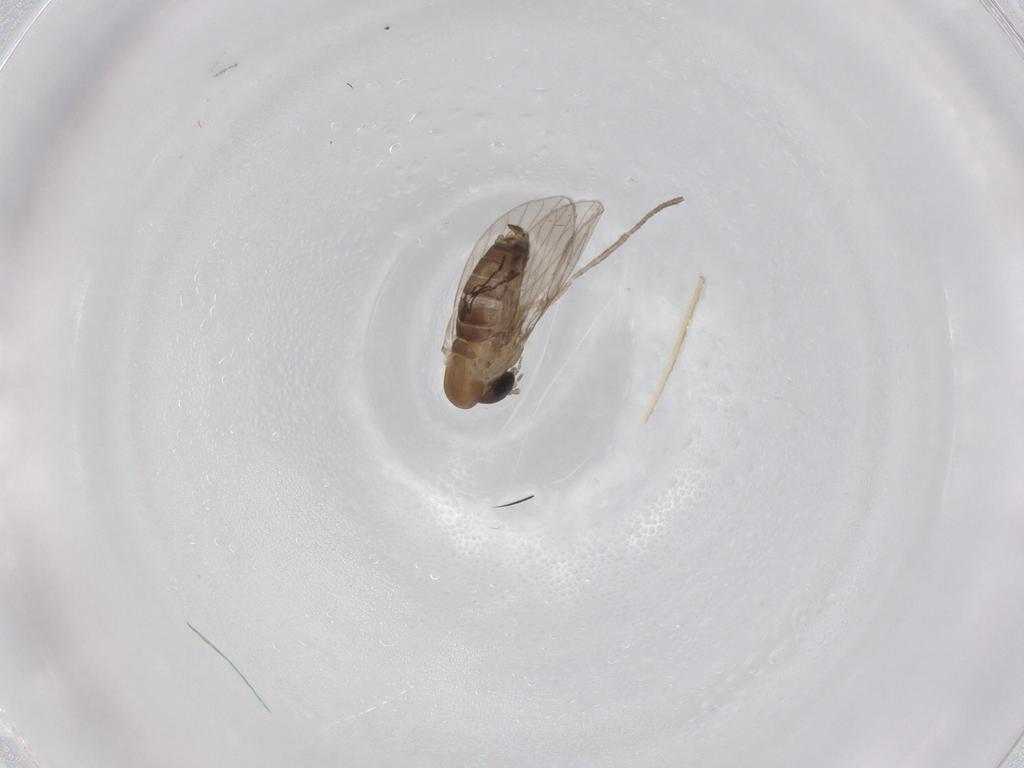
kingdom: Animalia
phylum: Arthropoda
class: Insecta
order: Diptera
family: Psychodidae
